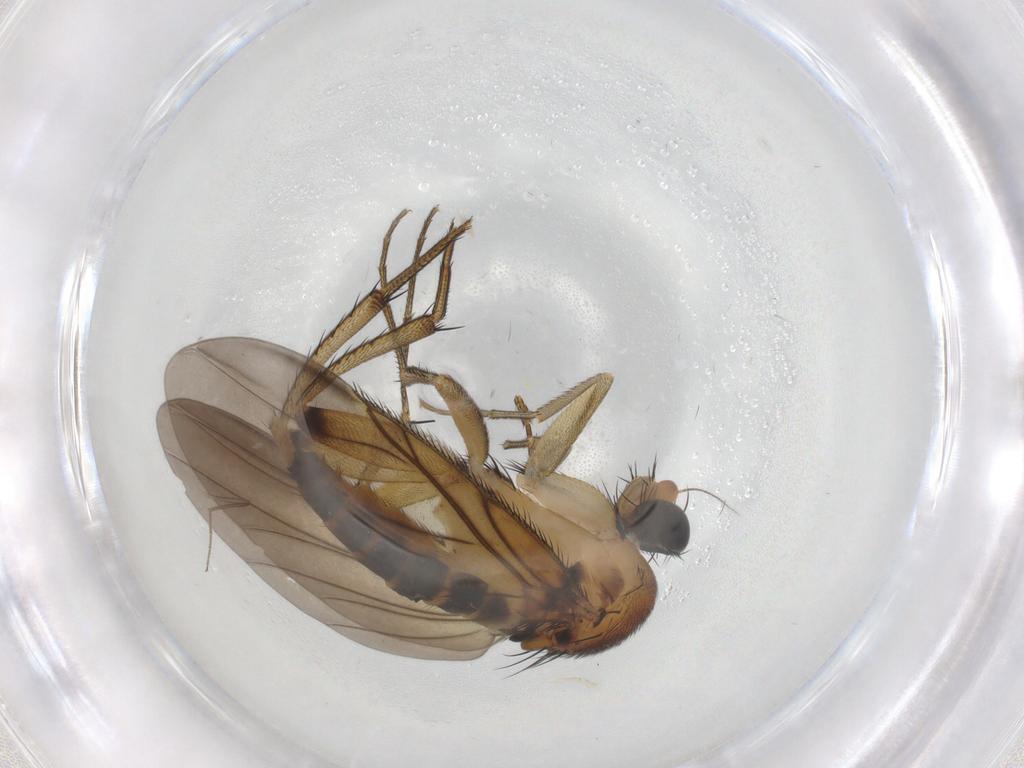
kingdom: Animalia
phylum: Arthropoda
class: Insecta
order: Diptera
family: Phoridae
